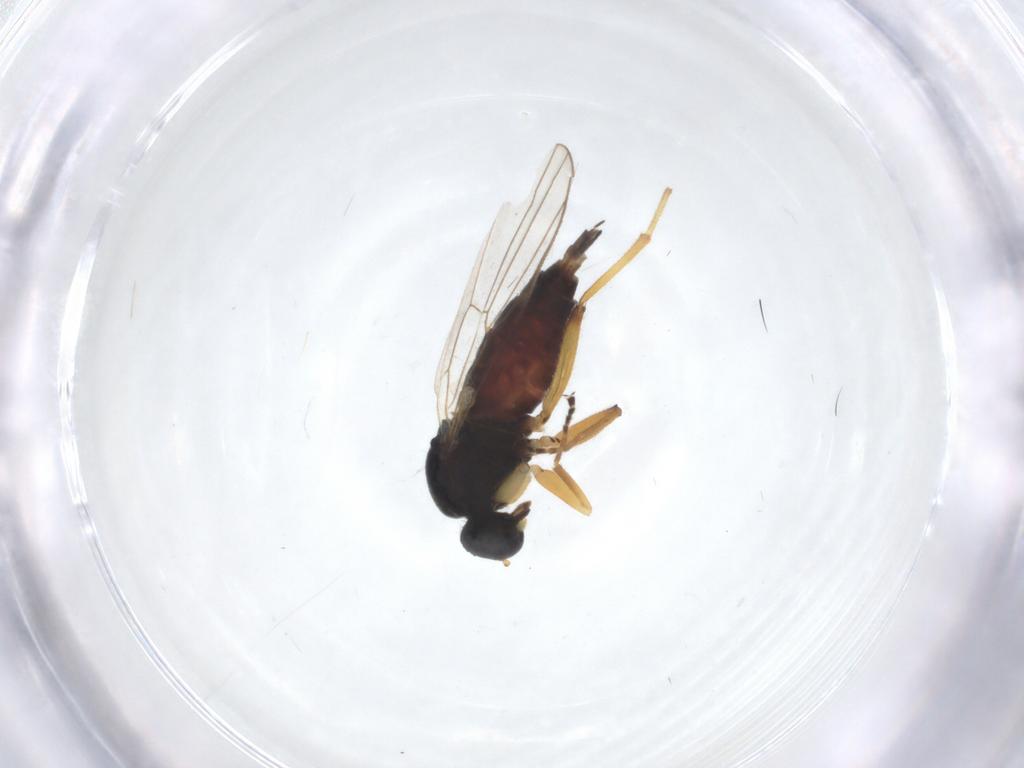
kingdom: Animalia
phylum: Arthropoda
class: Insecta
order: Diptera
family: Hybotidae
